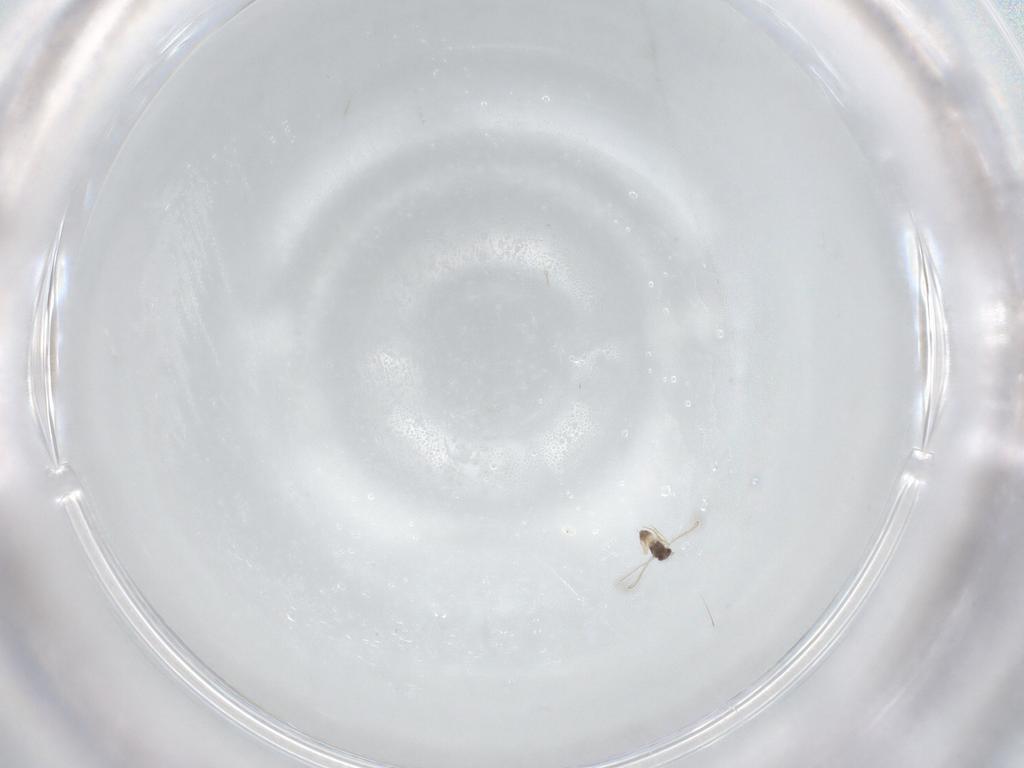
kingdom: Animalia
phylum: Arthropoda
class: Insecta
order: Hymenoptera
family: Mymaridae
